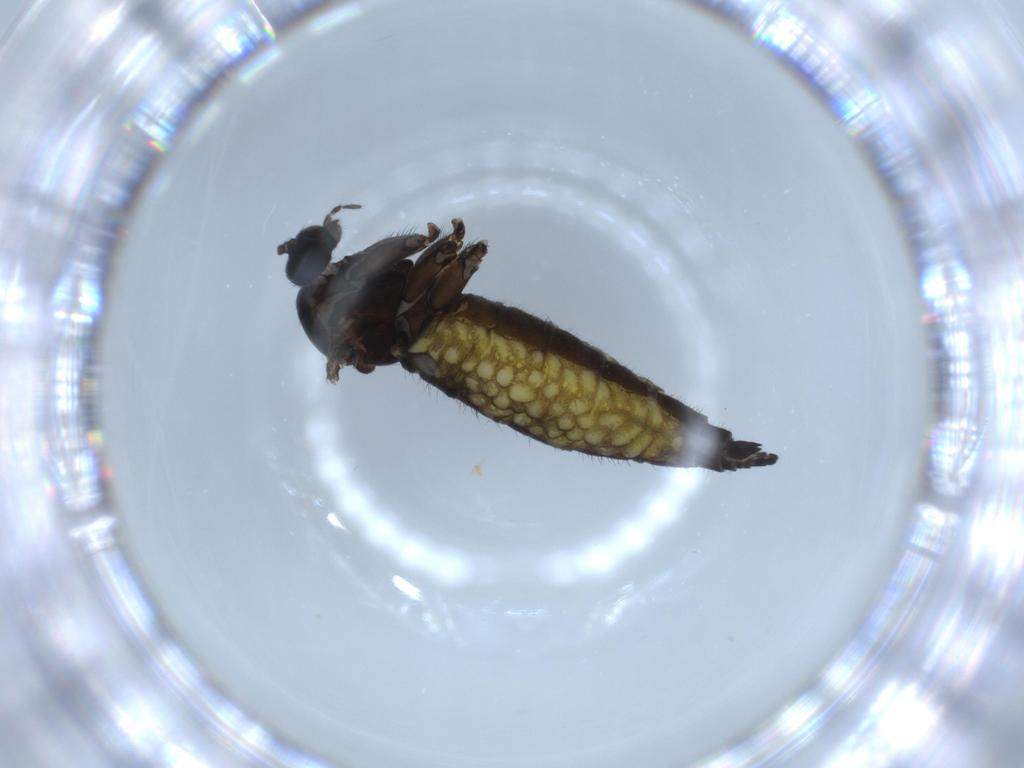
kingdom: Animalia
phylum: Arthropoda
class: Insecta
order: Diptera
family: Sciaridae
